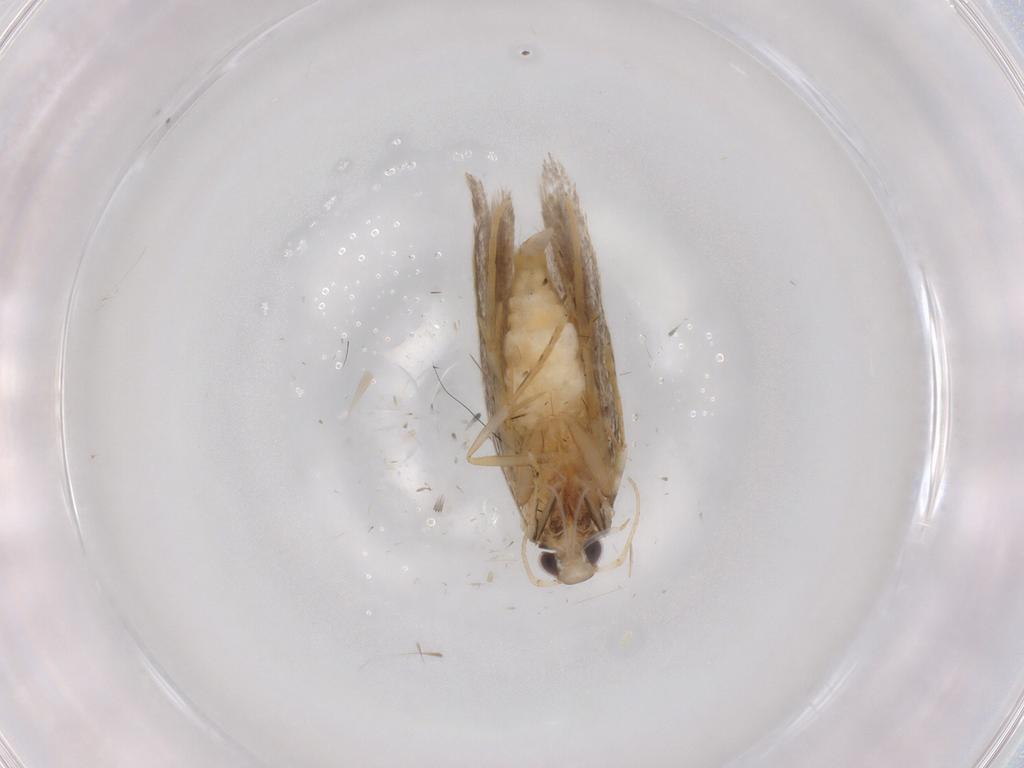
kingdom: Animalia
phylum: Arthropoda
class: Insecta
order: Lepidoptera
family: Autostichidae
